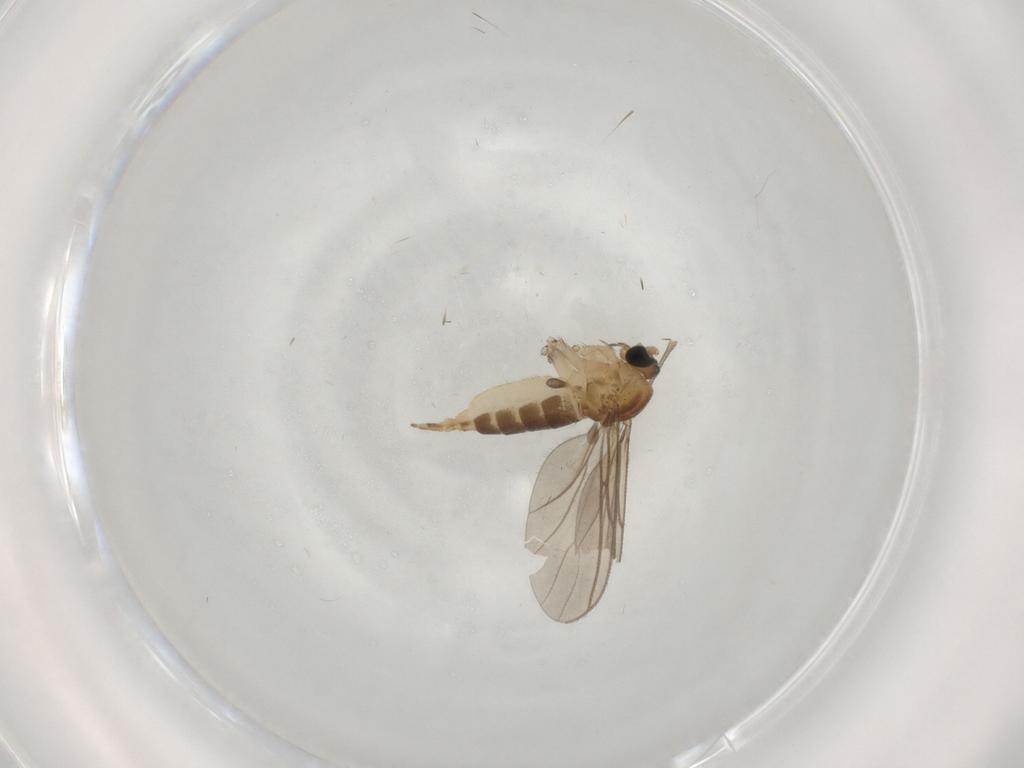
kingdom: Animalia
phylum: Arthropoda
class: Insecta
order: Diptera
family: Sciaridae
